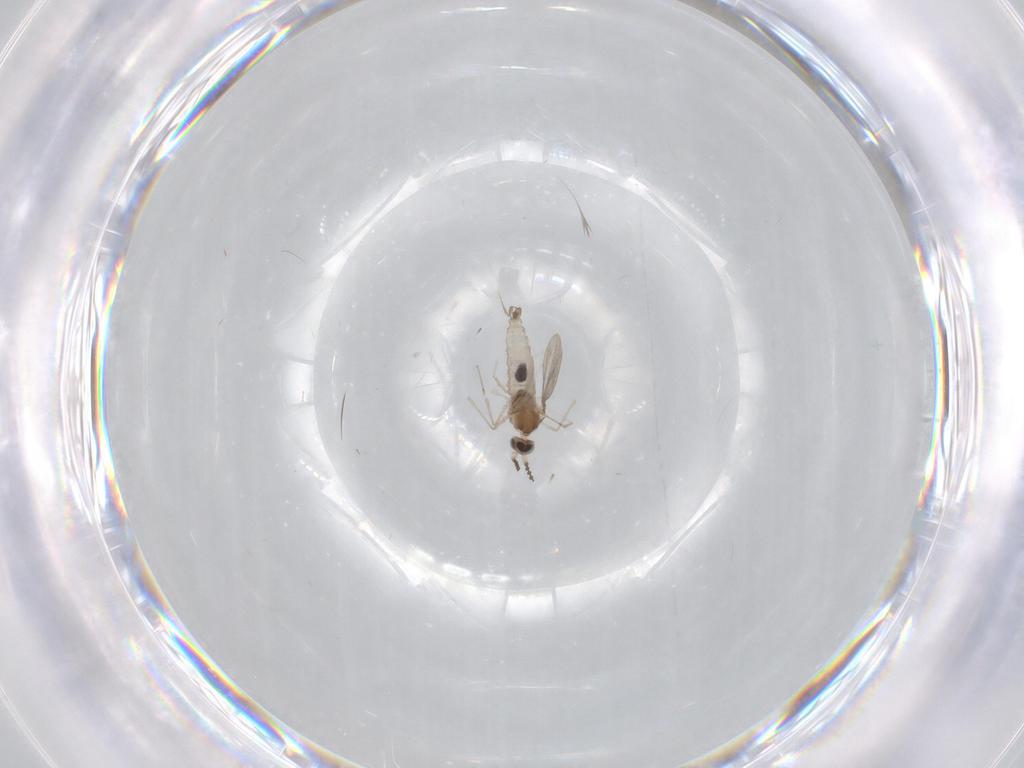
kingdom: Animalia
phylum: Arthropoda
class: Insecta
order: Diptera
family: Cecidomyiidae
